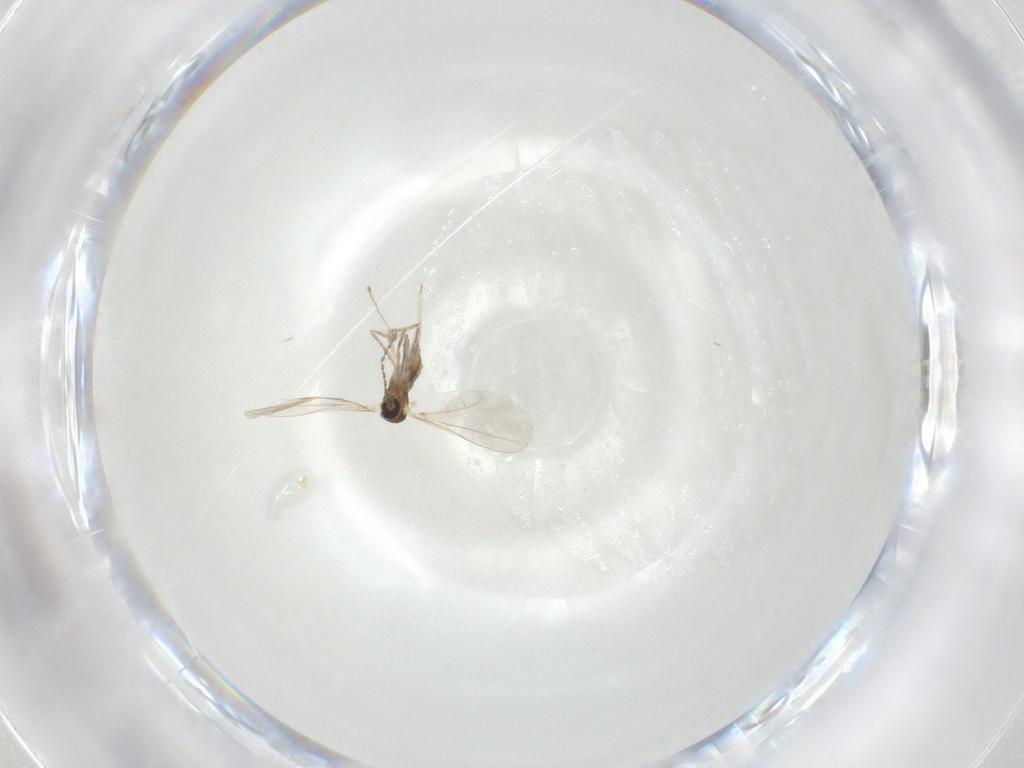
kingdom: Animalia
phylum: Arthropoda
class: Insecta
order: Diptera
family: Cecidomyiidae
